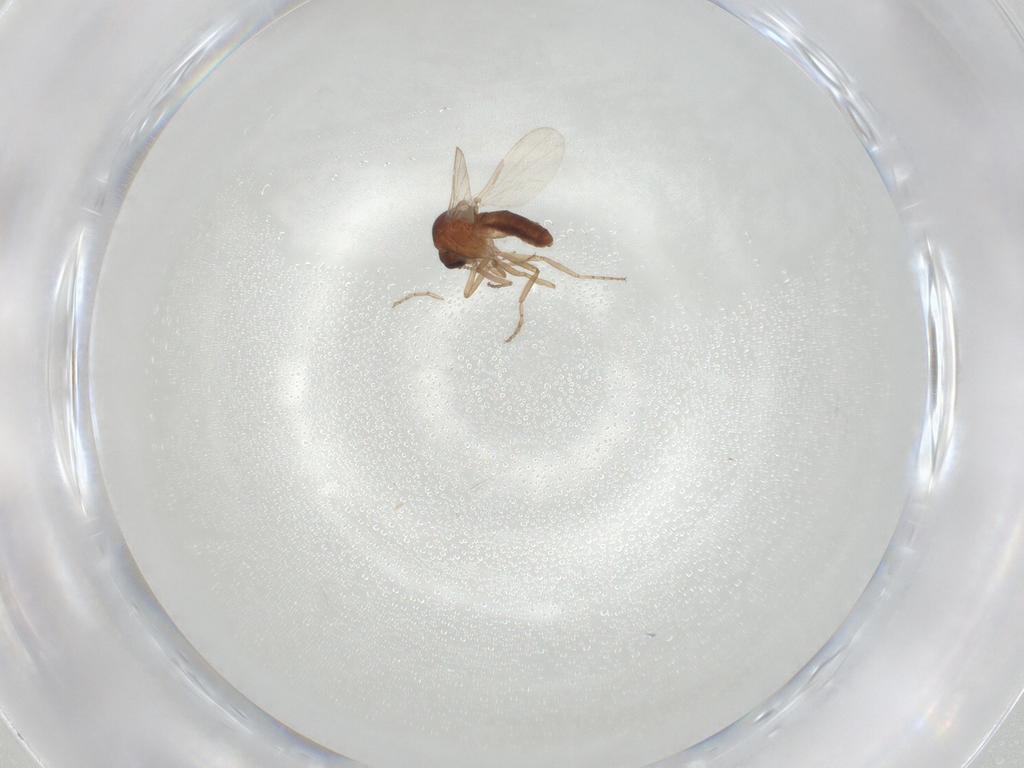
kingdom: Animalia
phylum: Arthropoda
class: Insecta
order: Diptera
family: Ceratopogonidae
